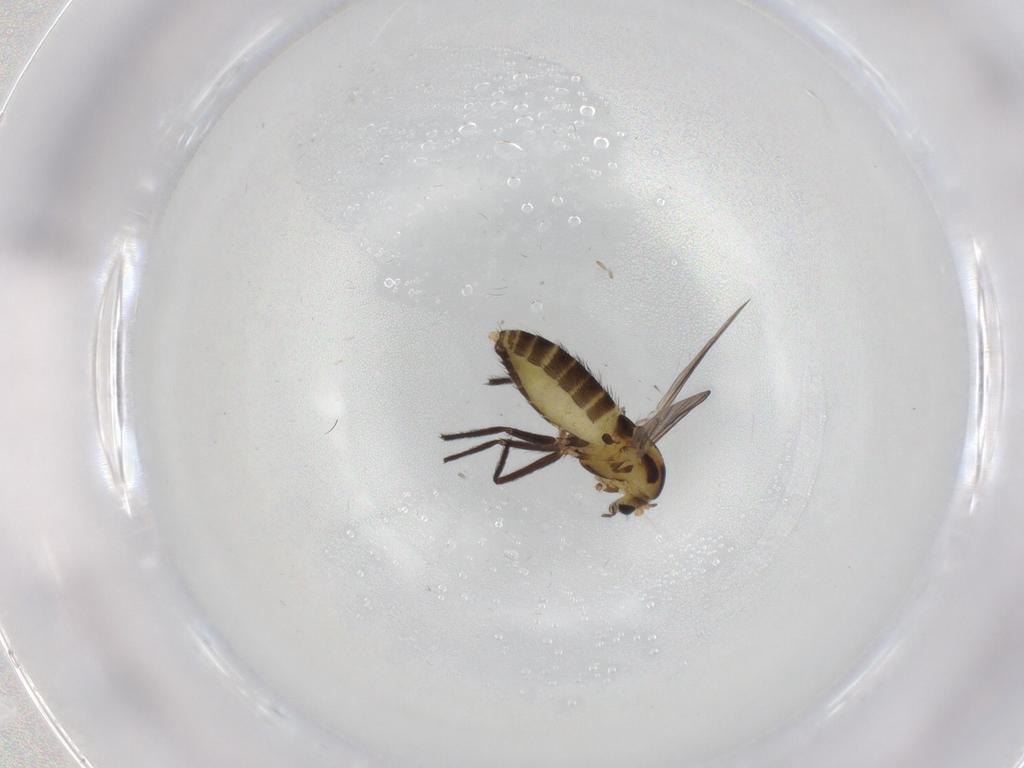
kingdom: Animalia
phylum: Arthropoda
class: Insecta
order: Diptera
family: Chironomidae
